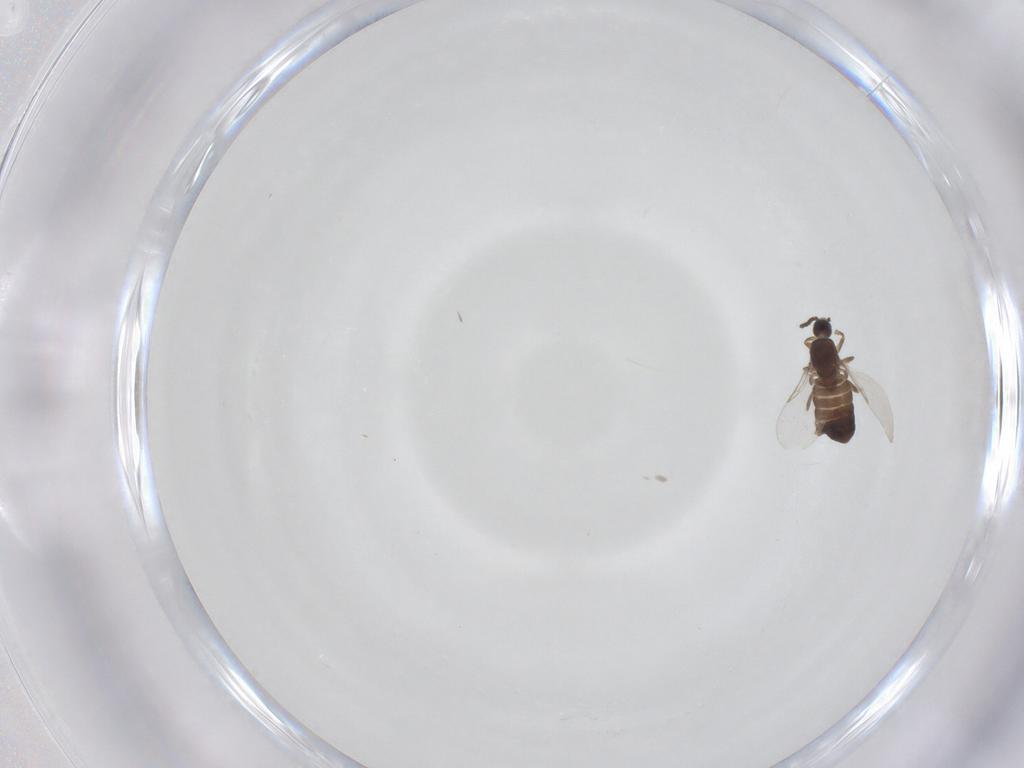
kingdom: Animalia
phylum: Arthropoda
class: Insecta
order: Diptera
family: Scatopsidae
